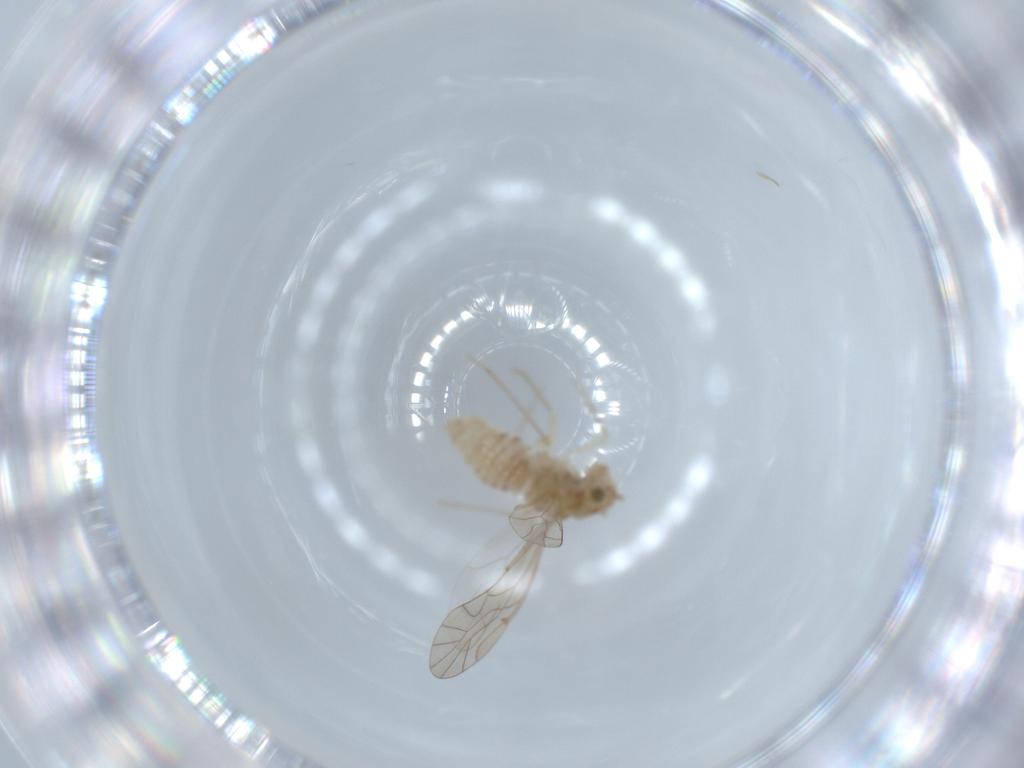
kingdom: Animalia
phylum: Arthropoda
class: Insecta
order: Psocodea
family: Lachesillidae
